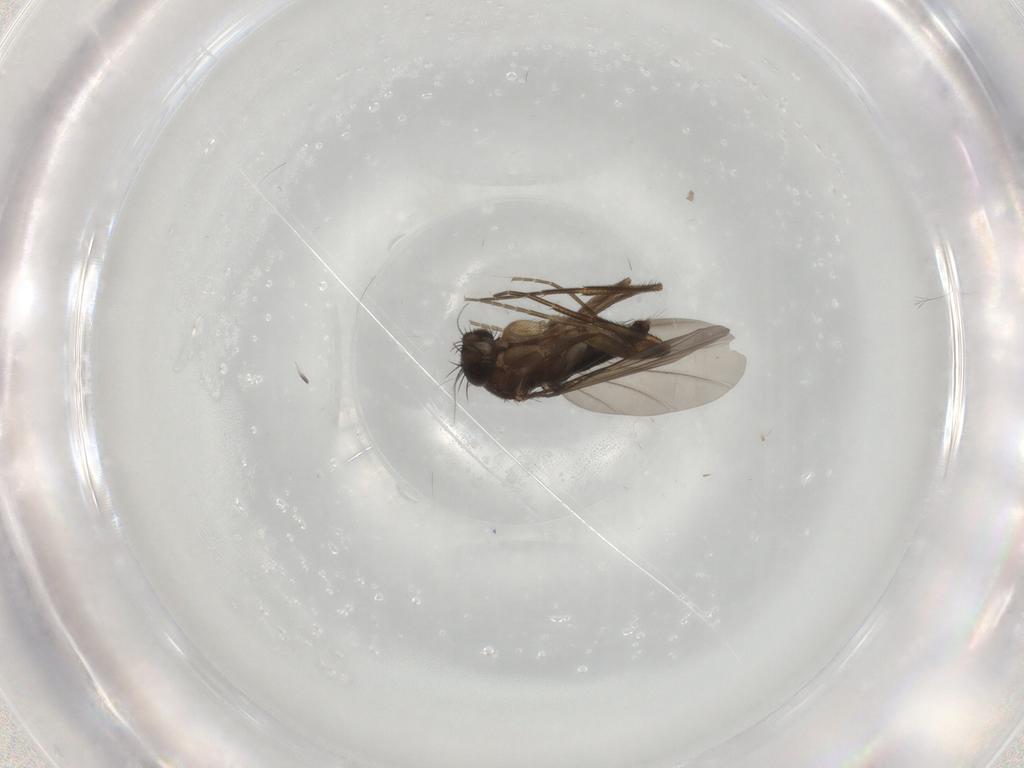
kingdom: Animalia
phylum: Arthropoda
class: Insecta
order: Diptera
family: Phoridae
